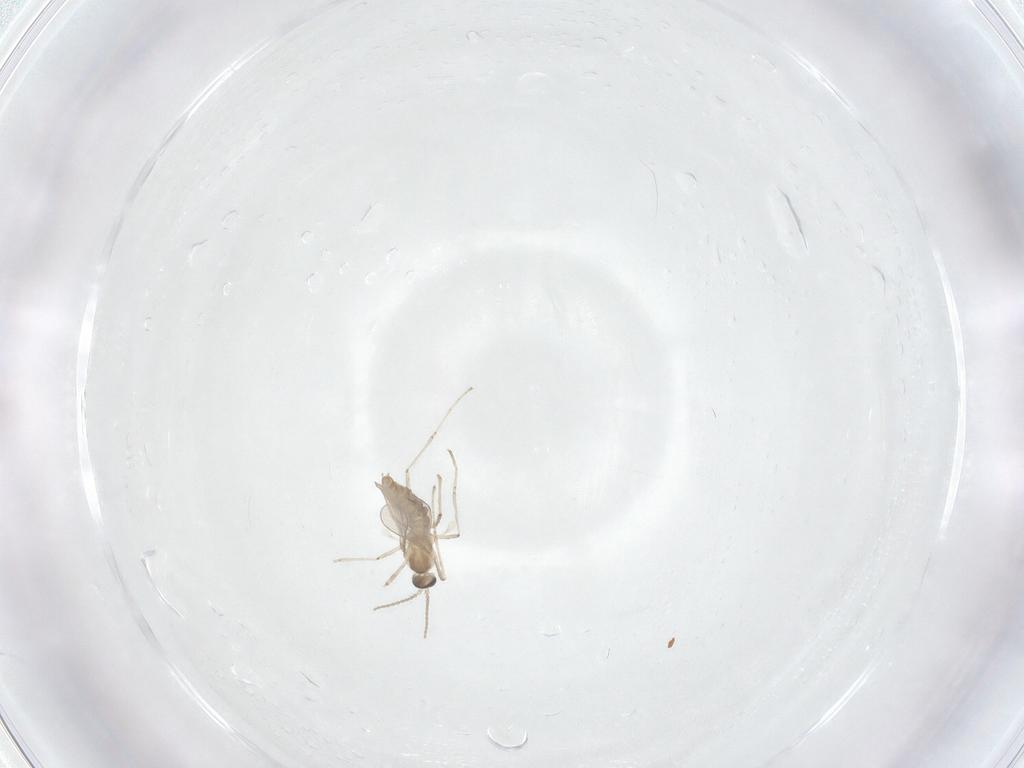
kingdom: Animalia
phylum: Arthropoda
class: Insecta
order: Diptera
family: Cecidomyiidae
